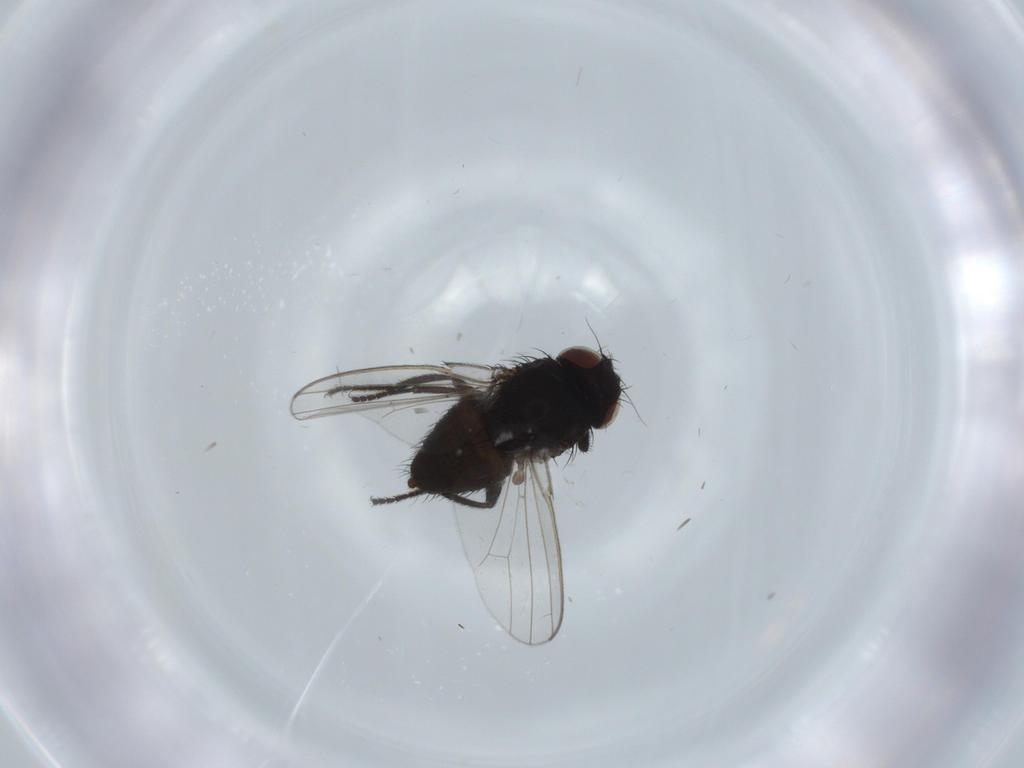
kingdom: Animalia
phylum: Arthropoda
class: Insecta
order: Diptera
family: Milichiidae
